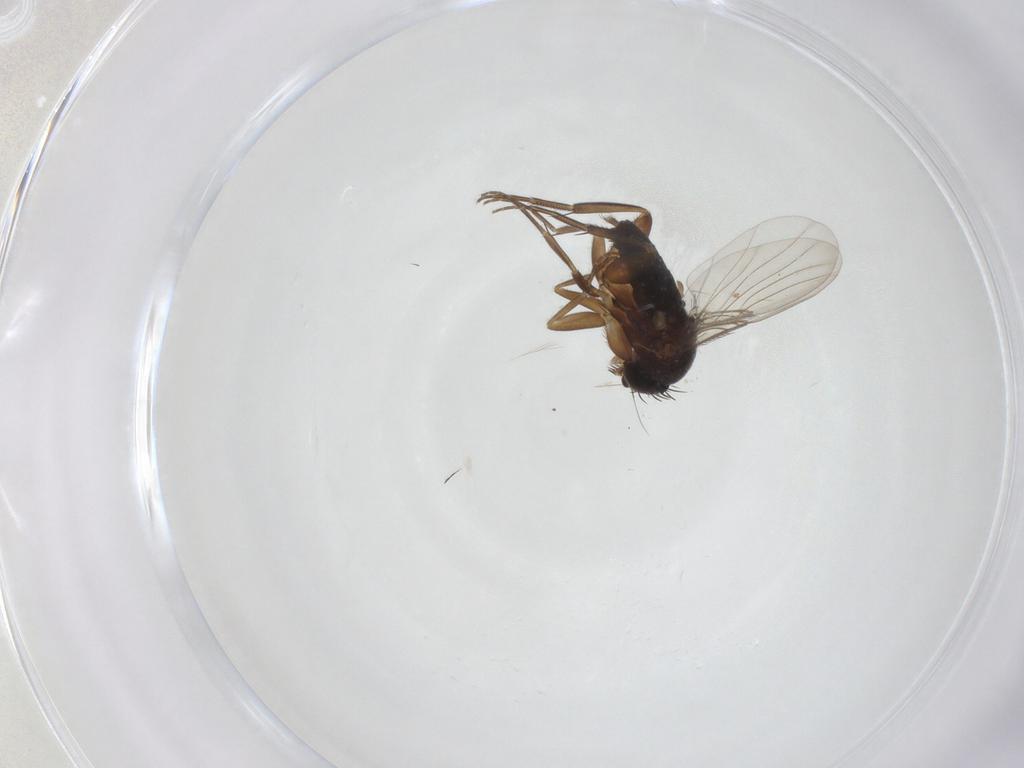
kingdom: Animalia
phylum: Arthropoda
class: Insecta
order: Diptera
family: Phoridae
